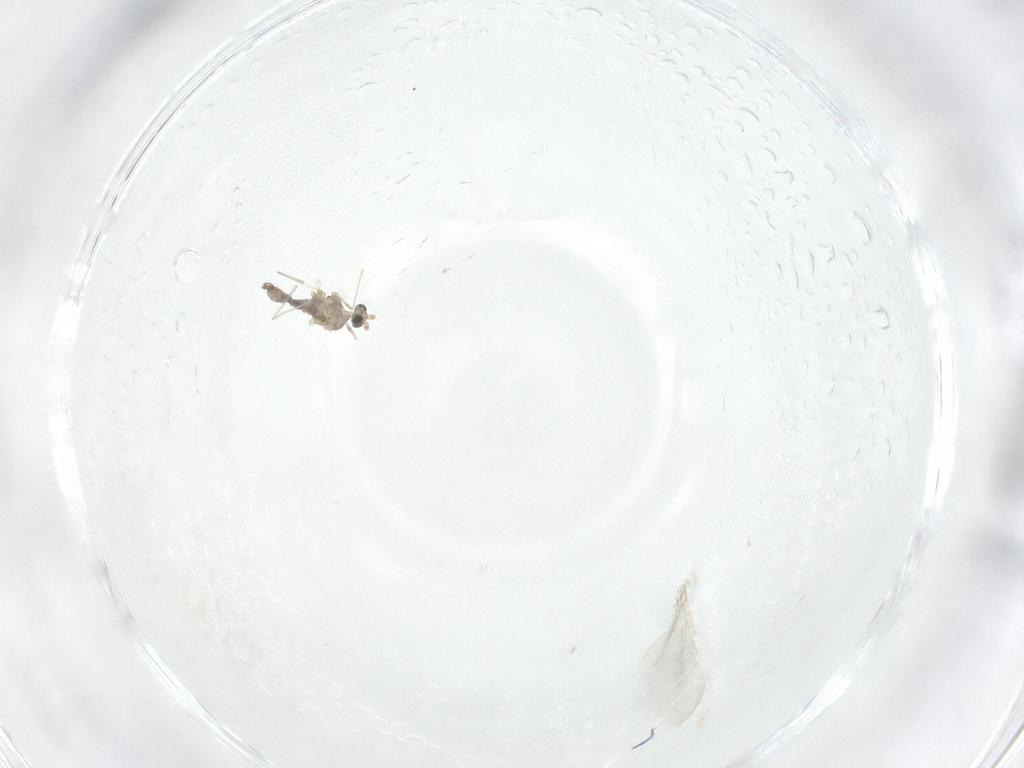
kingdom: Animalia
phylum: Arthropoda
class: Insecta
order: Diptera
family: Cecidomyiidae
